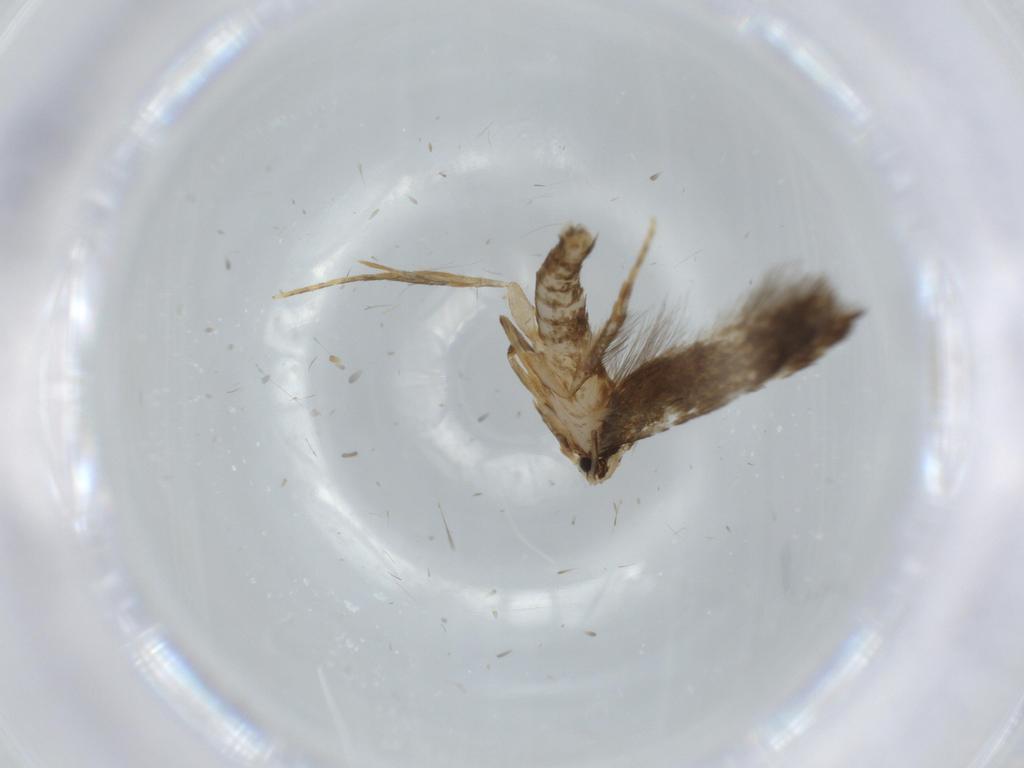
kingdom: Animalia
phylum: Arthropoda
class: Insecta
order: Lepidoptera
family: Tineidae
